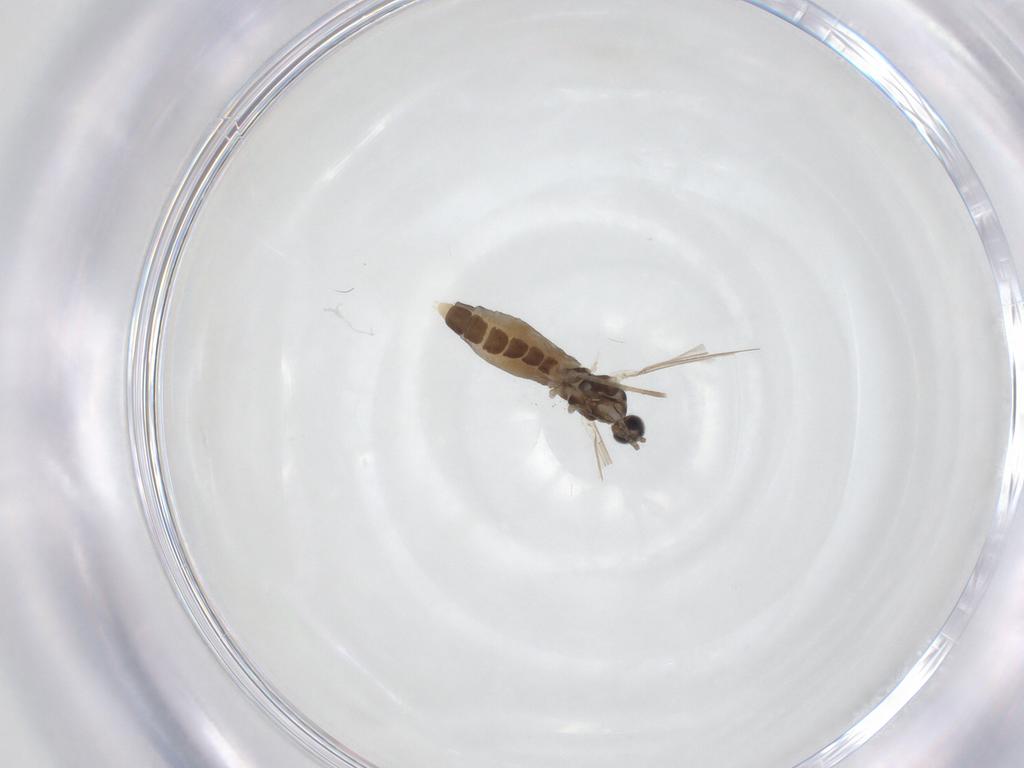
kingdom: Animalia
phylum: Arthropoda
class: Insecta
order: Diptera
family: Cecidomyiidae
